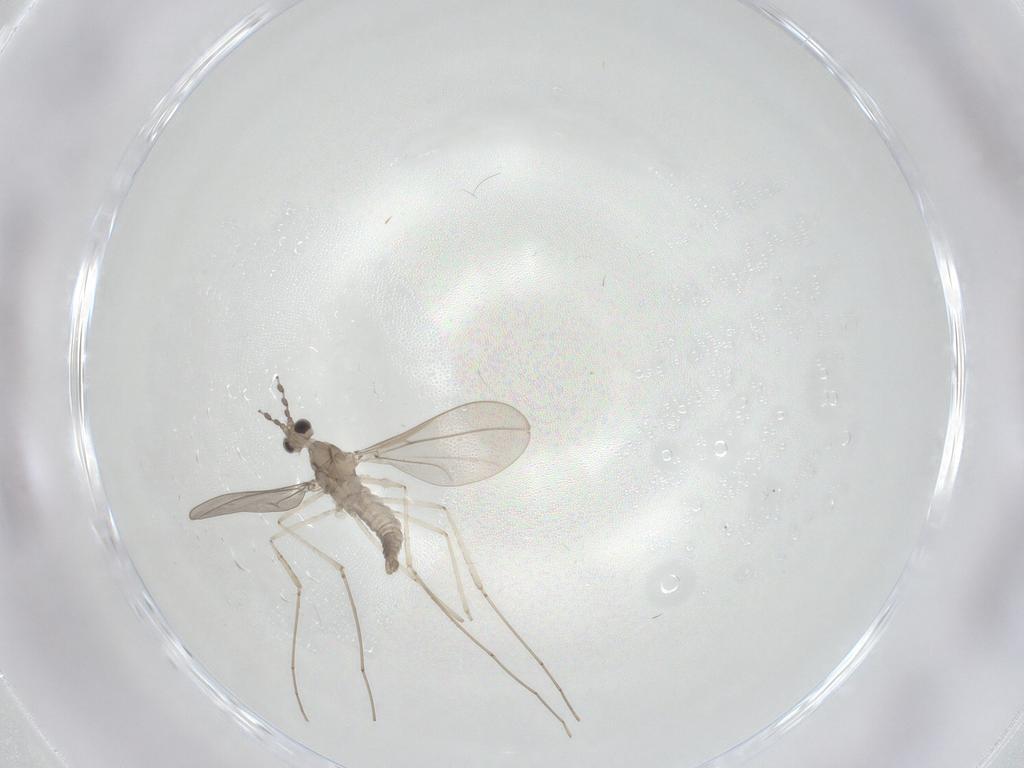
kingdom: Animalia
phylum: Arthropoda
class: Insecta
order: Diptera
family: Cecidomyiidae
